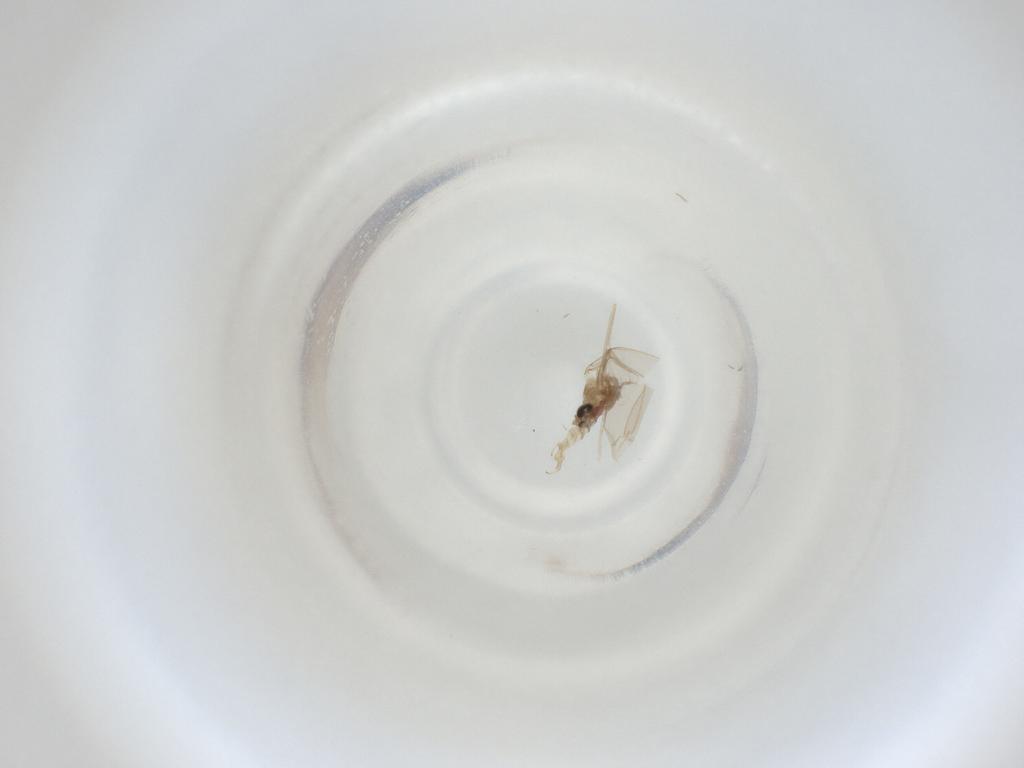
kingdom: Animalia
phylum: Arthropoda
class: Insecta
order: Diptera
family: Cecidomyiidae
